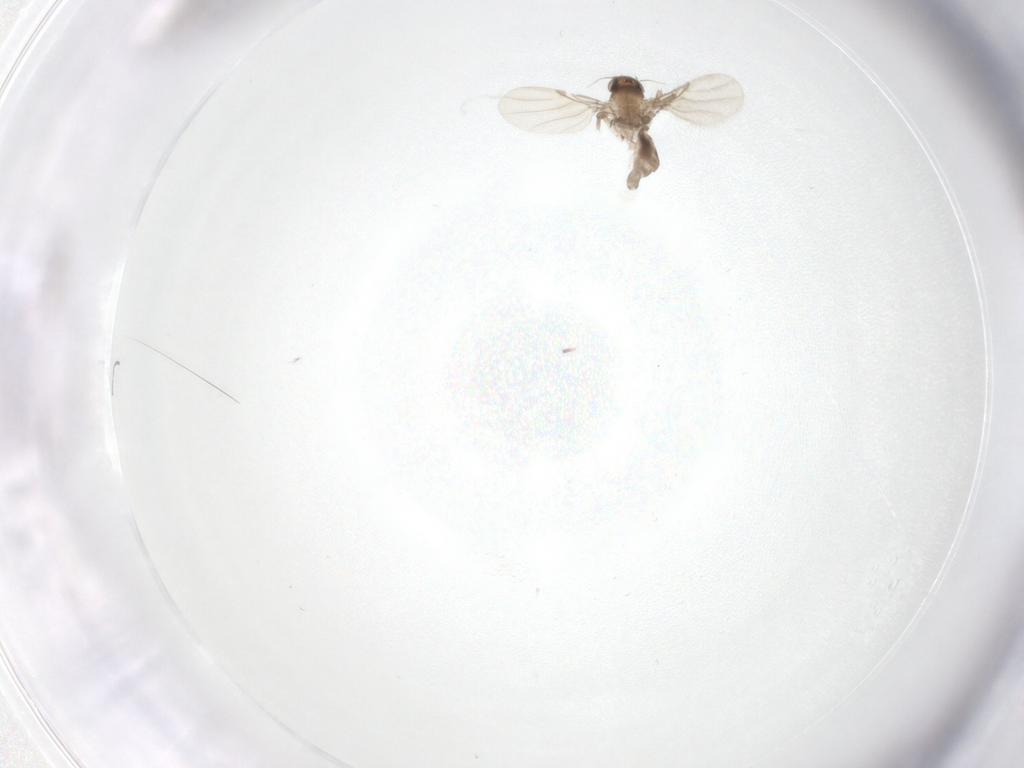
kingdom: Animalia
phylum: Arthropoda
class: Insecta
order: Diptera
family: Cecidomyiidae
